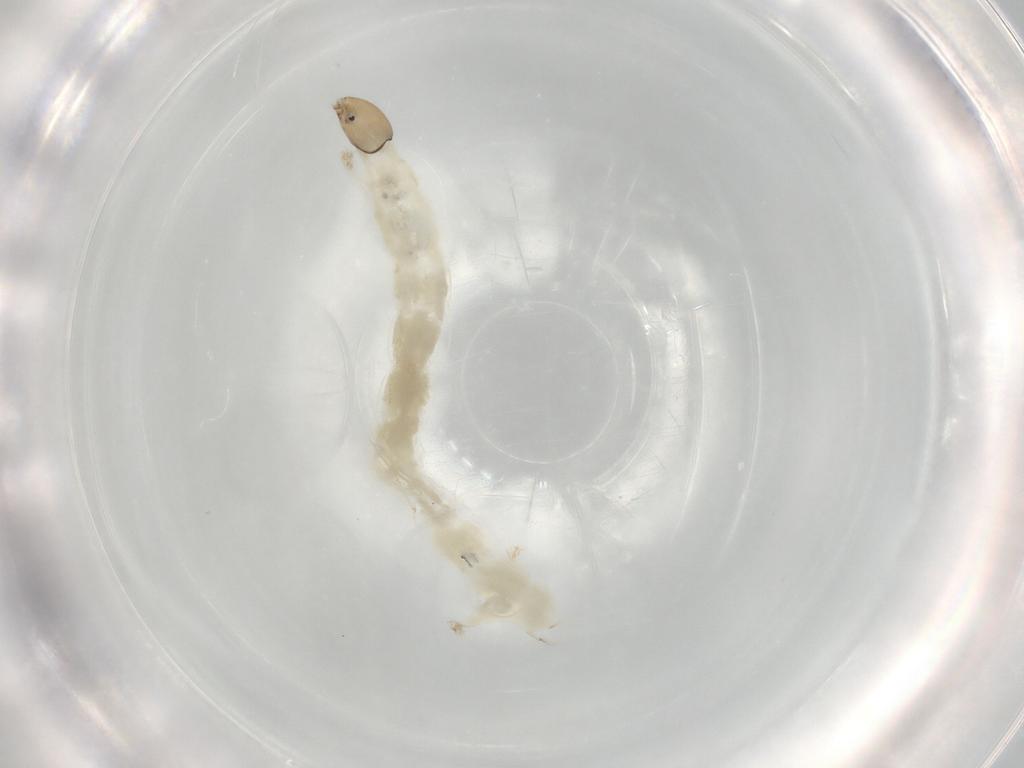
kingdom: Animalia
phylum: Arthropoda
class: Insecta
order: Diptera
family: Chironomidae
